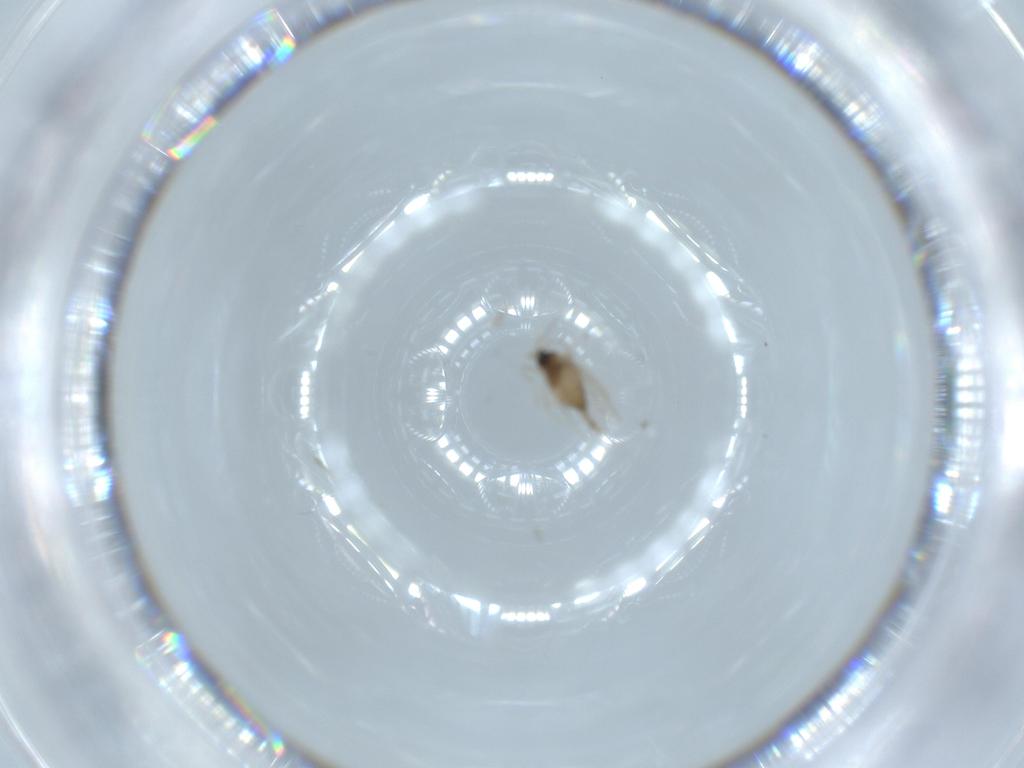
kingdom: Animalia
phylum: Arthropoda
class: Insecta
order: Diptera
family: Cecidomyiidae
